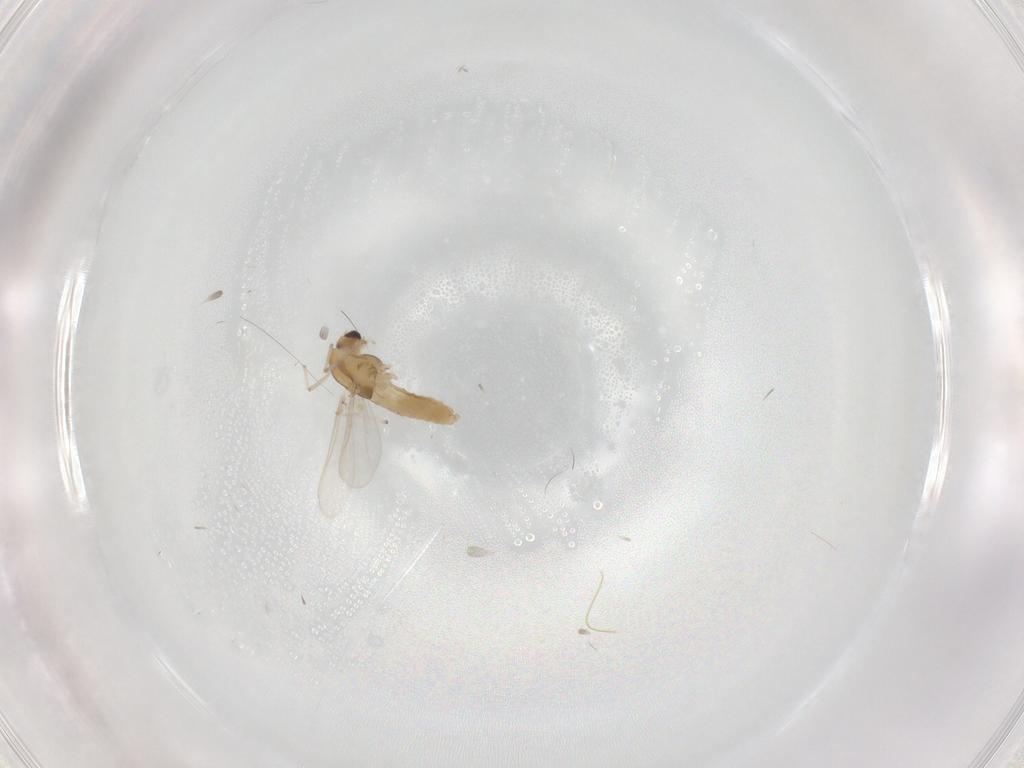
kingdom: Animalia
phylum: Arthropoda
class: Insecta
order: Diptera
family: Chironomidae
